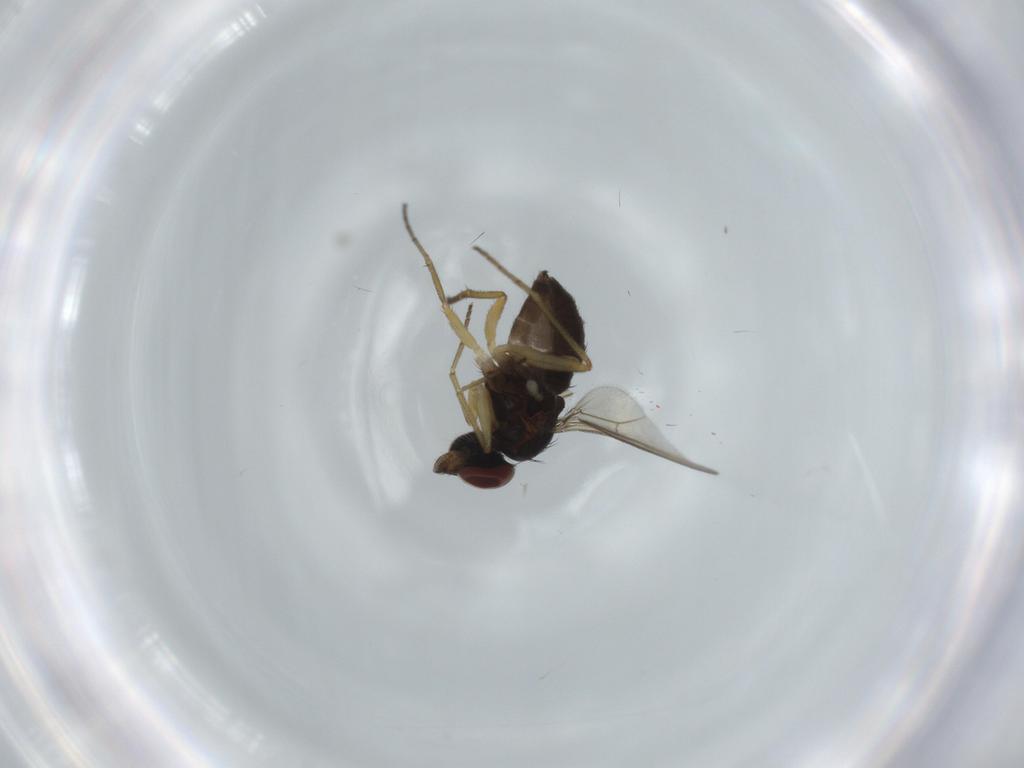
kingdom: Animalia
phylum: Arthropoda
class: Insecta
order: Diptera
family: Dolichopodidae
